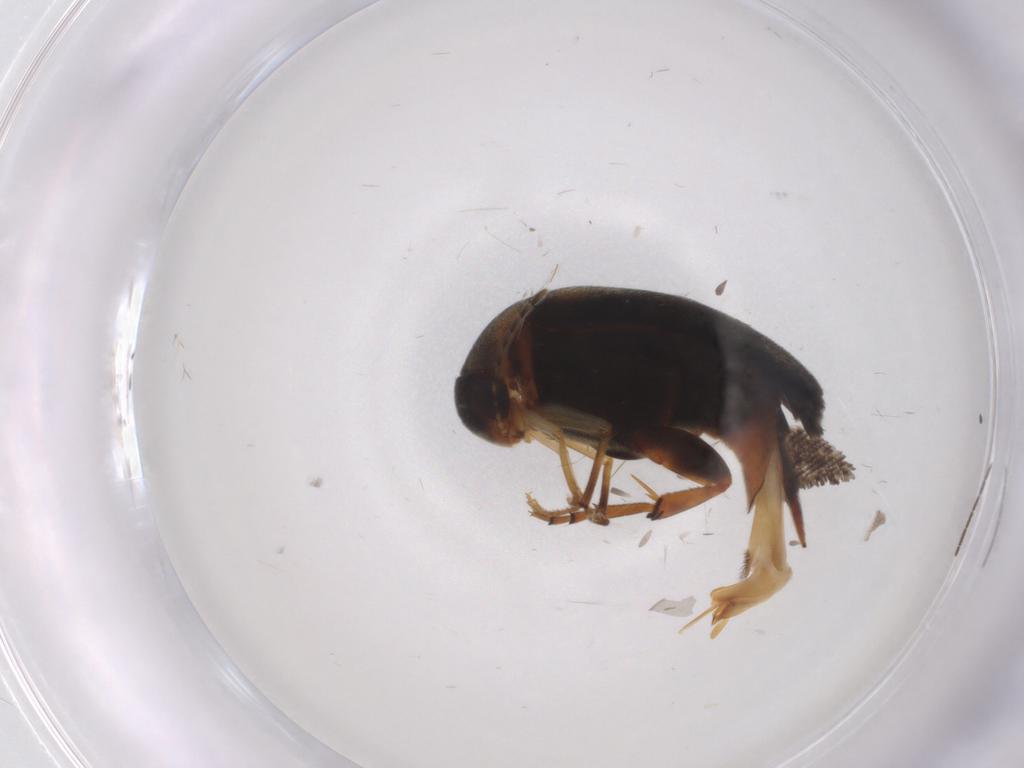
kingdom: Animalia
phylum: Arthropoda
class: Insecta
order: Coleoptera
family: Mordellidae
